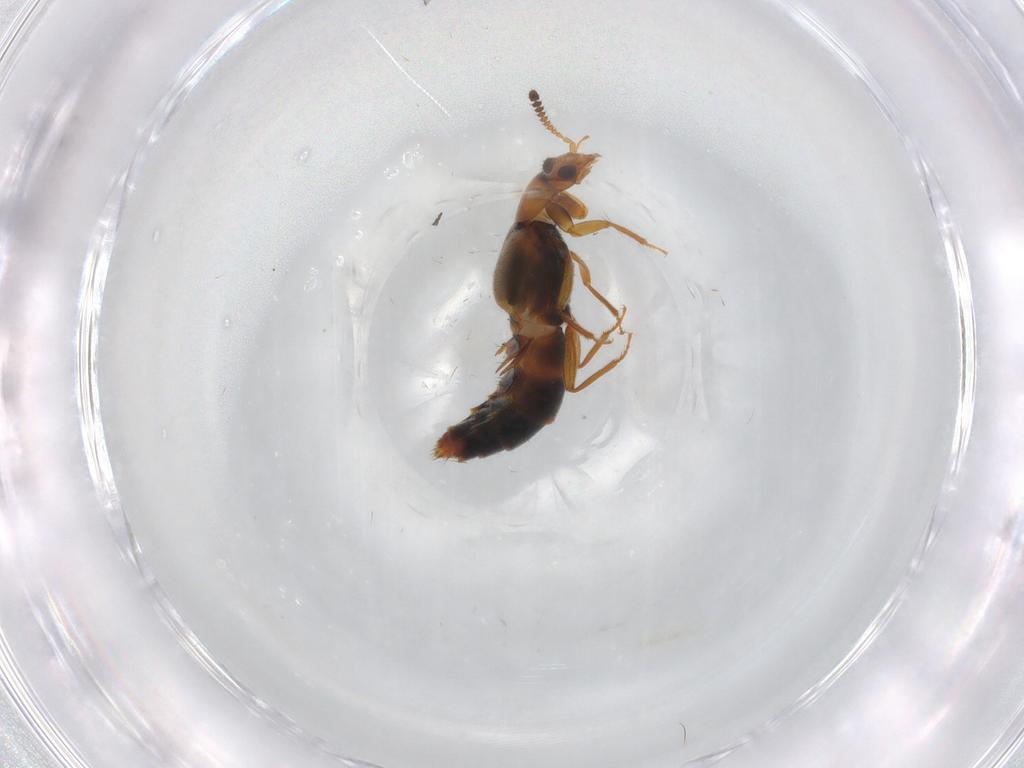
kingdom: Animalia
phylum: Arthropoda
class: Insecta
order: Coleoptera
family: Staphylinidae
